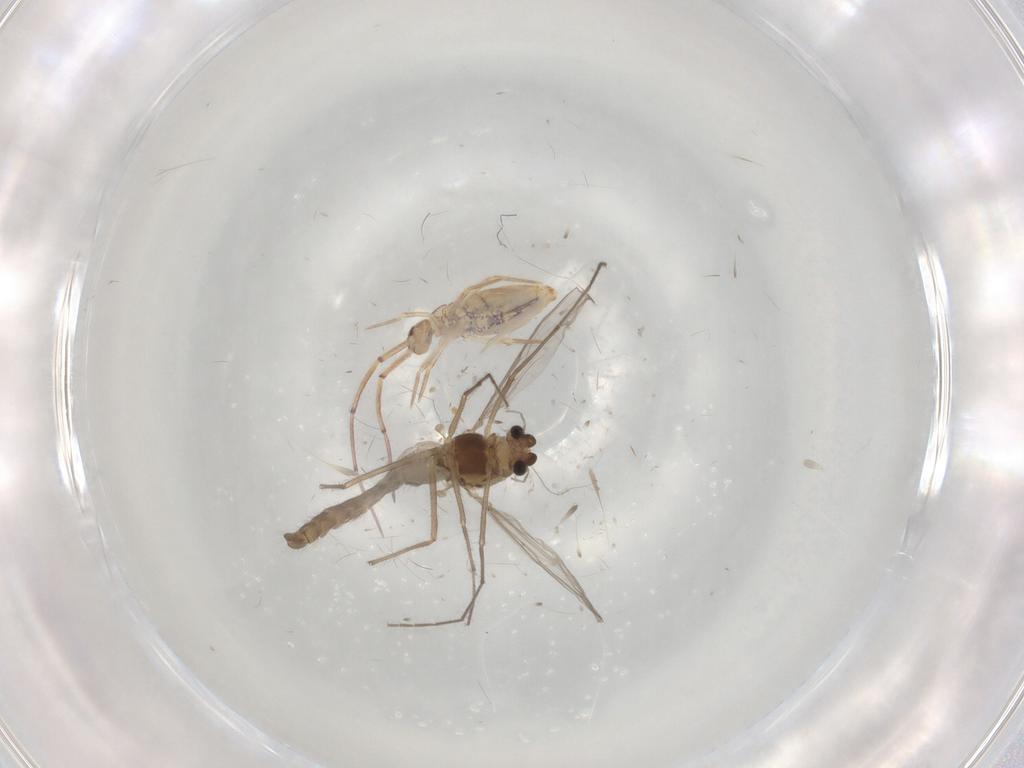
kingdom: Animalia
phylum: Arthropoda
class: Insecta
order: Diptera
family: Chironomidae
